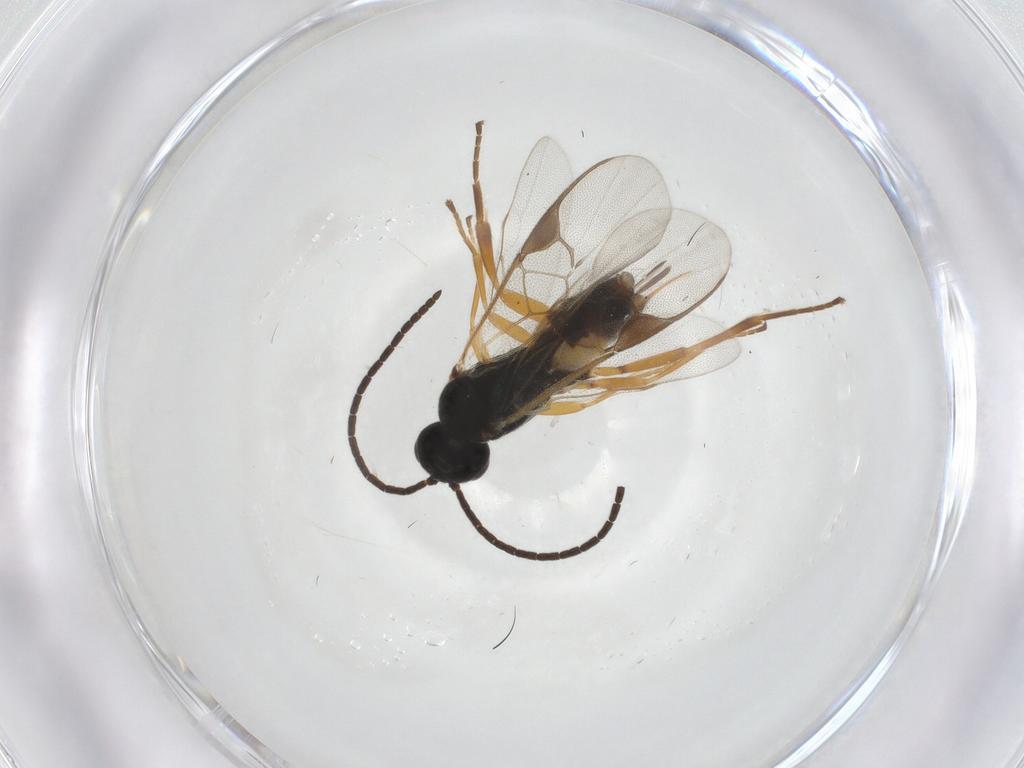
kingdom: Animalia
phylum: Arthropoda
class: Insecta
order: Hymenoptera
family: Braconidae
